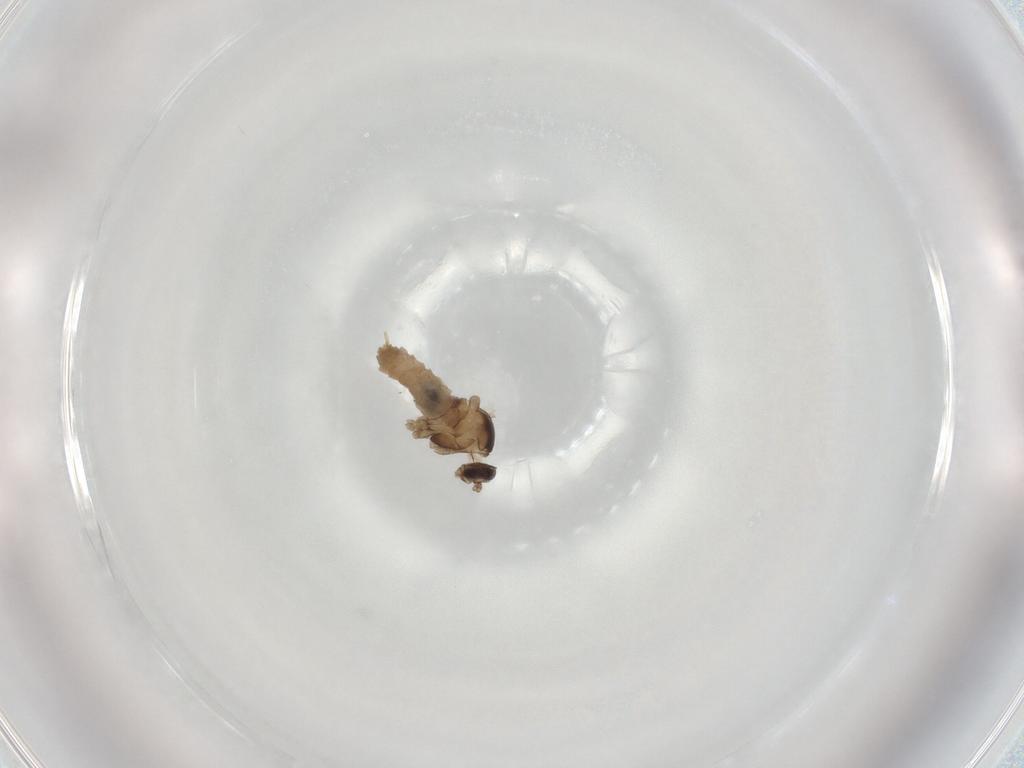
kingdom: Animalia
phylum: Arthropoda
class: Insecta
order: Diptera
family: Cecidomyiidae
